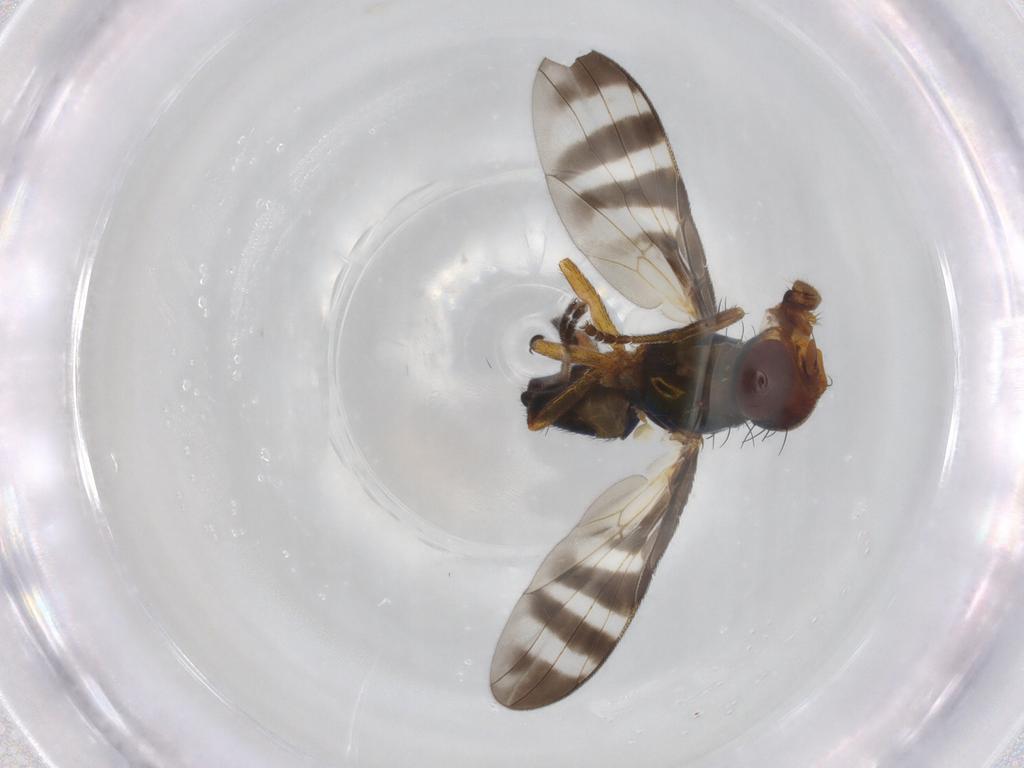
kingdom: Animalia
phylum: Arthropoda
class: Insecta
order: Diptera
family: Platystomatidae
